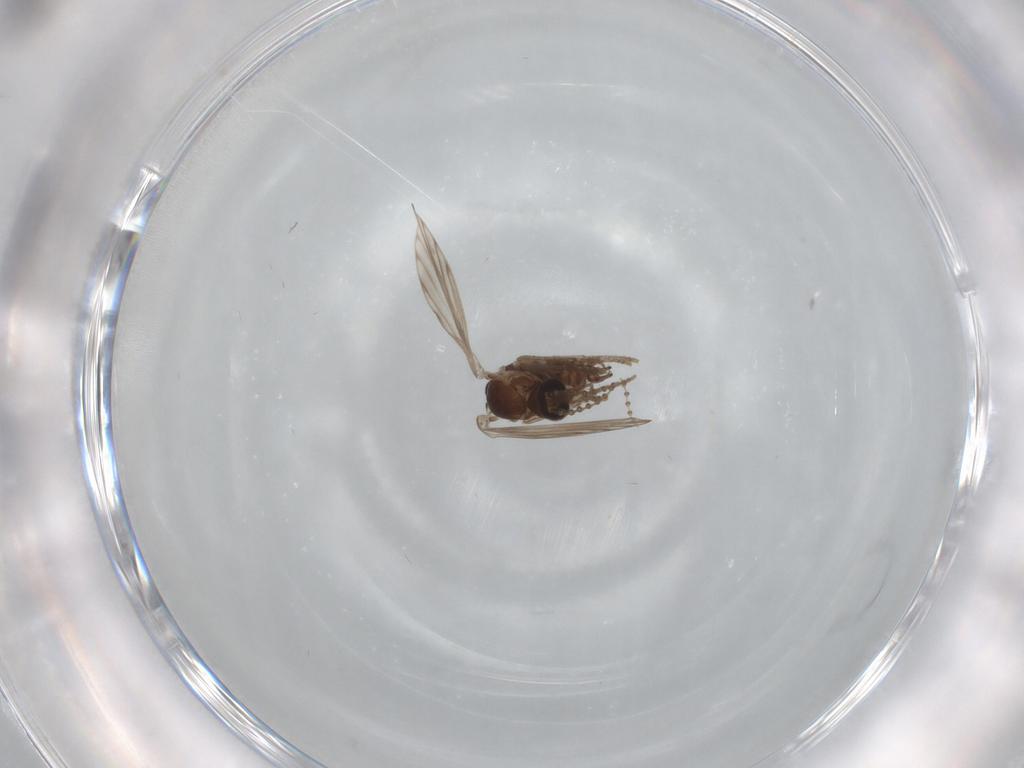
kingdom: Animalia
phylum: Arthropoda
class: Insecta
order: Diptera
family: Psychodidae
